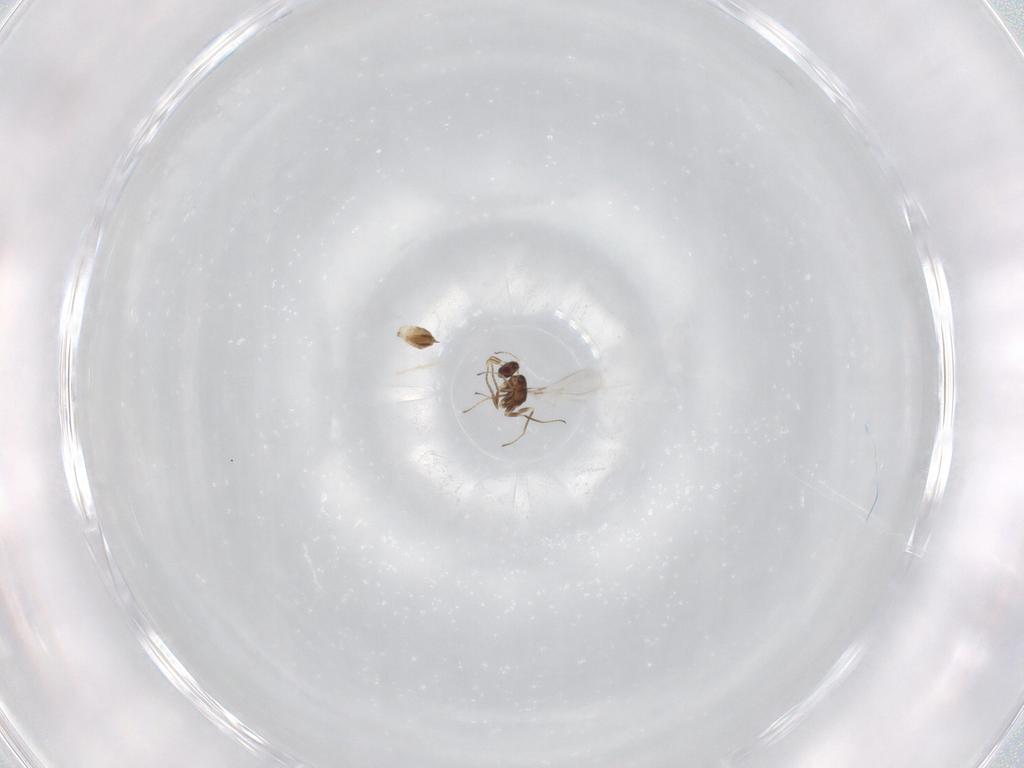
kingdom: Animalia
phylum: Arthropoda
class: Insecta
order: Hymenoptera
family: Mymaridae
